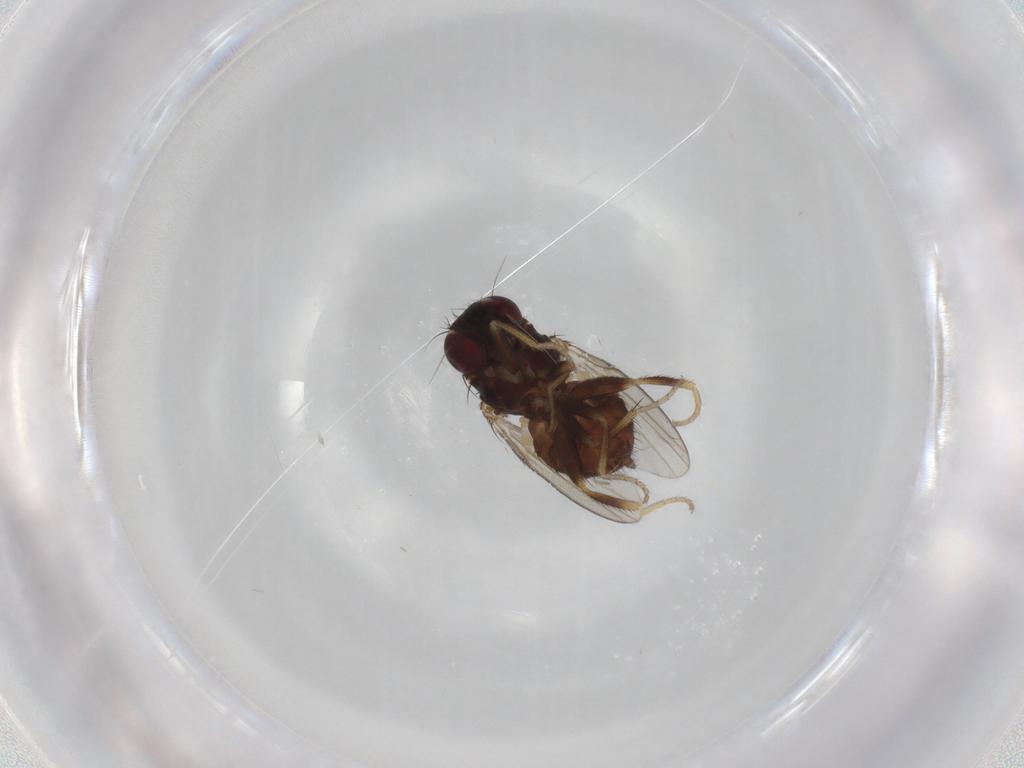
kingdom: Animalia
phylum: Arthropoda
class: Insecta
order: Diptera
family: Milichiidae
